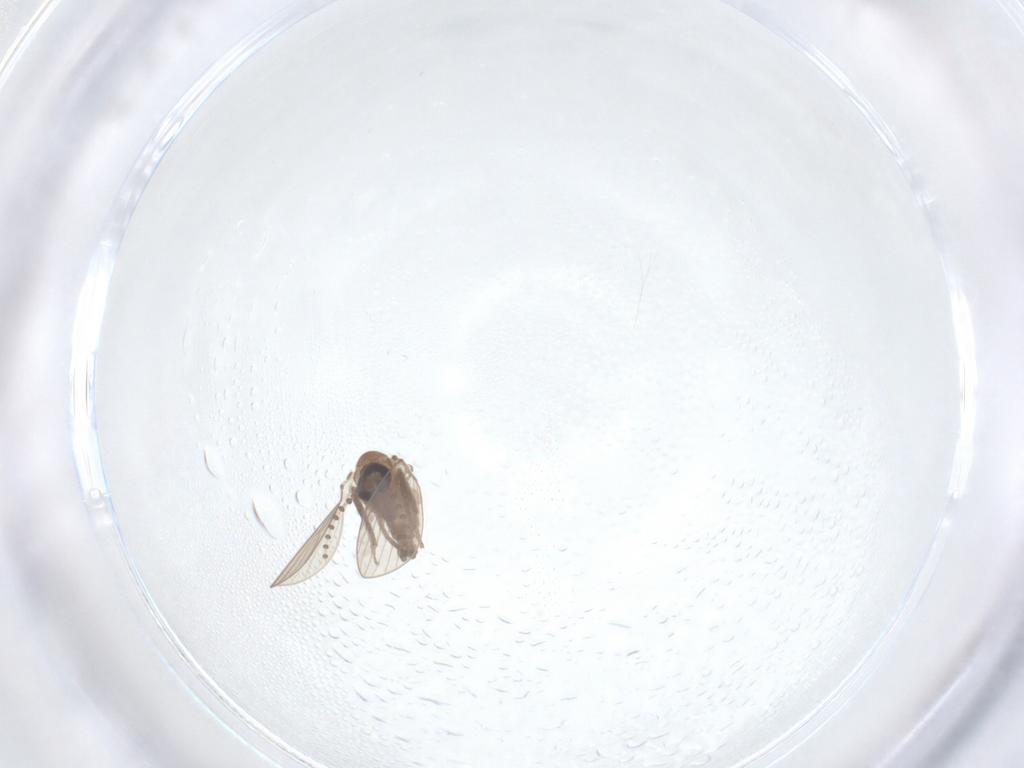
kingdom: Animalia
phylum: Arthropoda
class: Insecta
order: Diptera
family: Psychodidae
